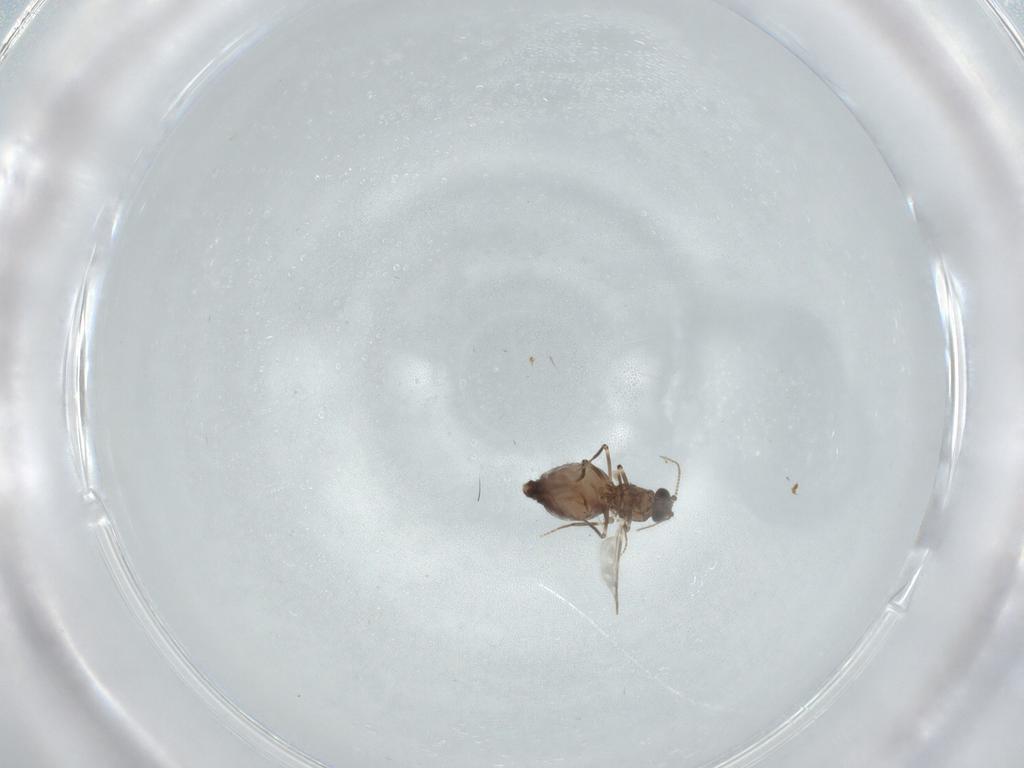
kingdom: Animalia
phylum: Arthropoda
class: Insecta
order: Diptera
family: Ceratopogonidae
